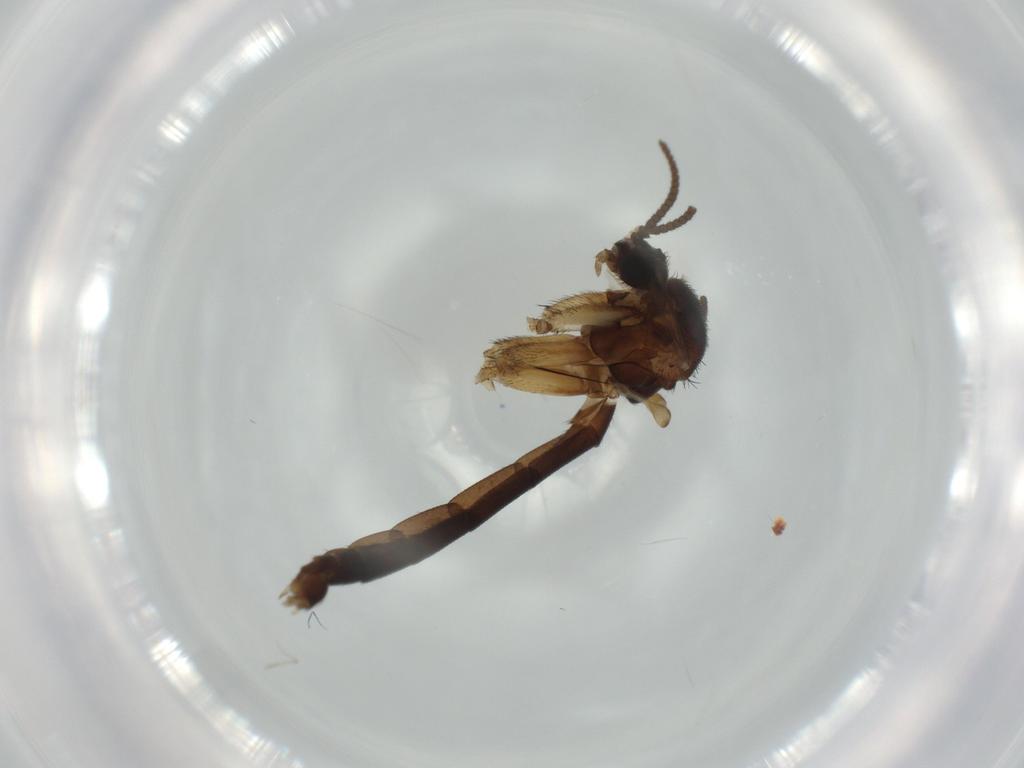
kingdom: Animalia
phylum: Arthropoda
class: Insecta
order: Diptera
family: Keroplatidae
